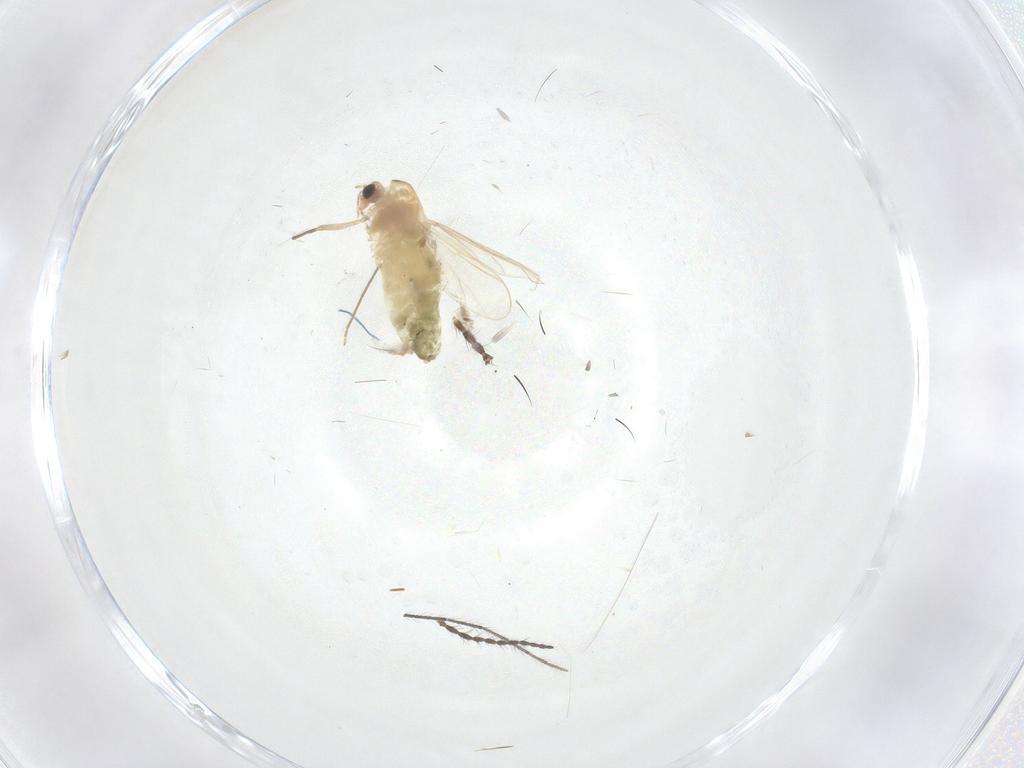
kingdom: Animalia
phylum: Arthropoda
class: Insecta
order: Diptera
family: Chironomidae
